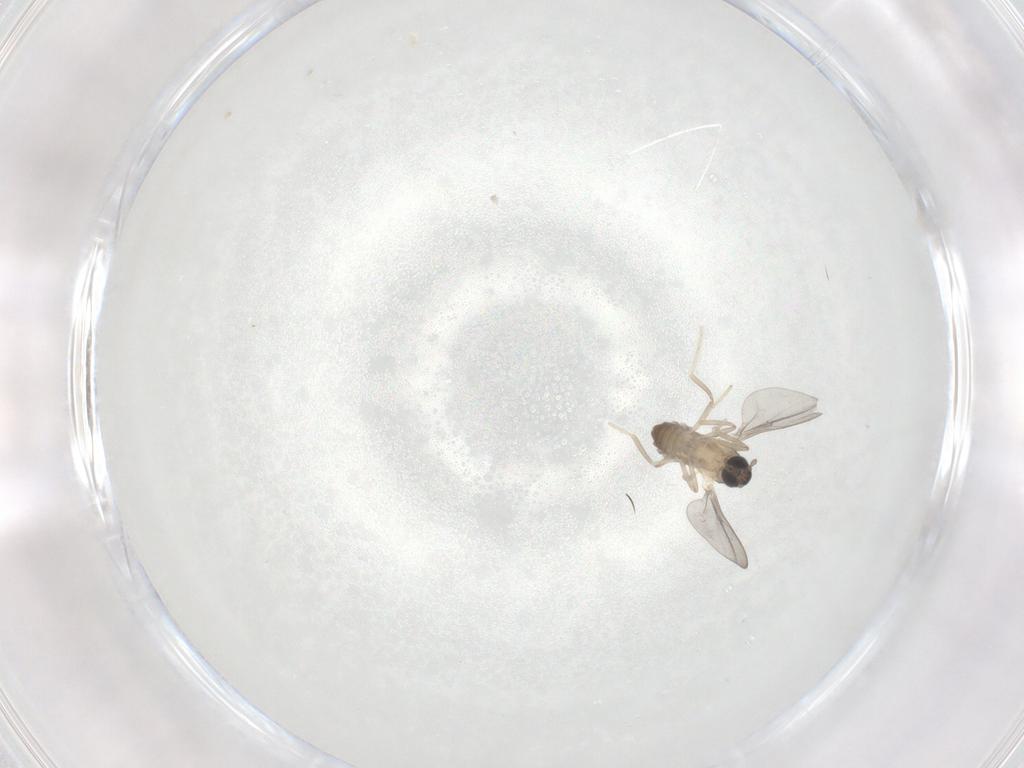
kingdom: Animalia
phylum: Arthropoda
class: Insecta
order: Diptera
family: Cecidomyiidae
